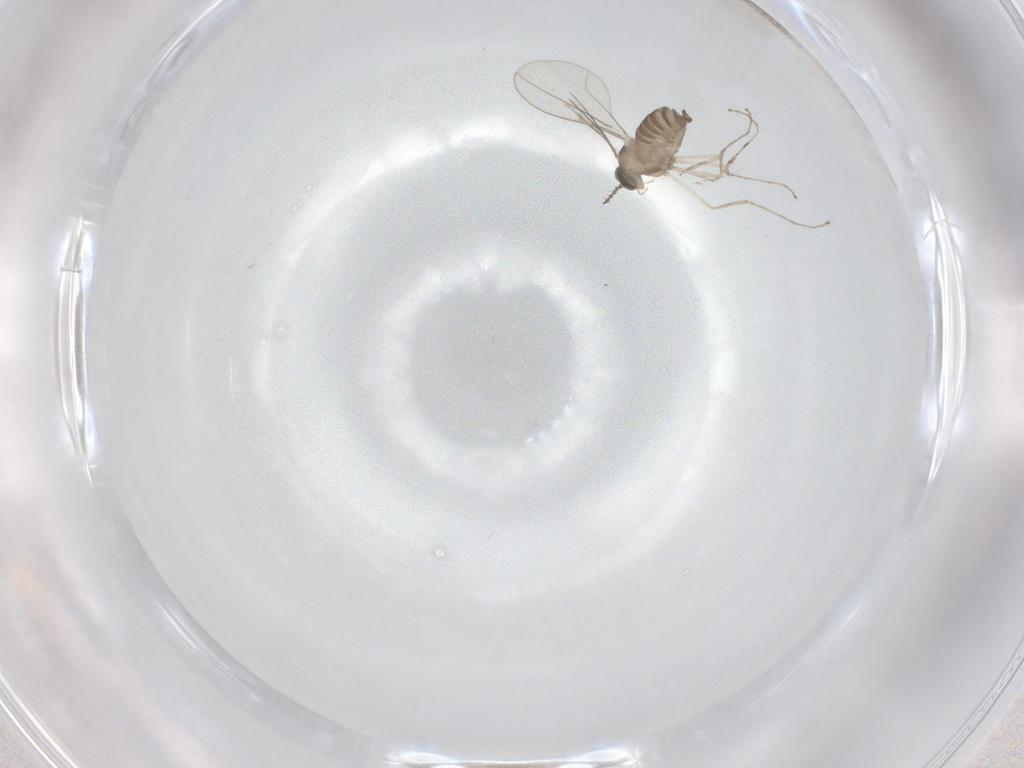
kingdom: Animalia
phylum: Arthropoda
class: Insecta
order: Diptera
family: Cecidomyiidae
